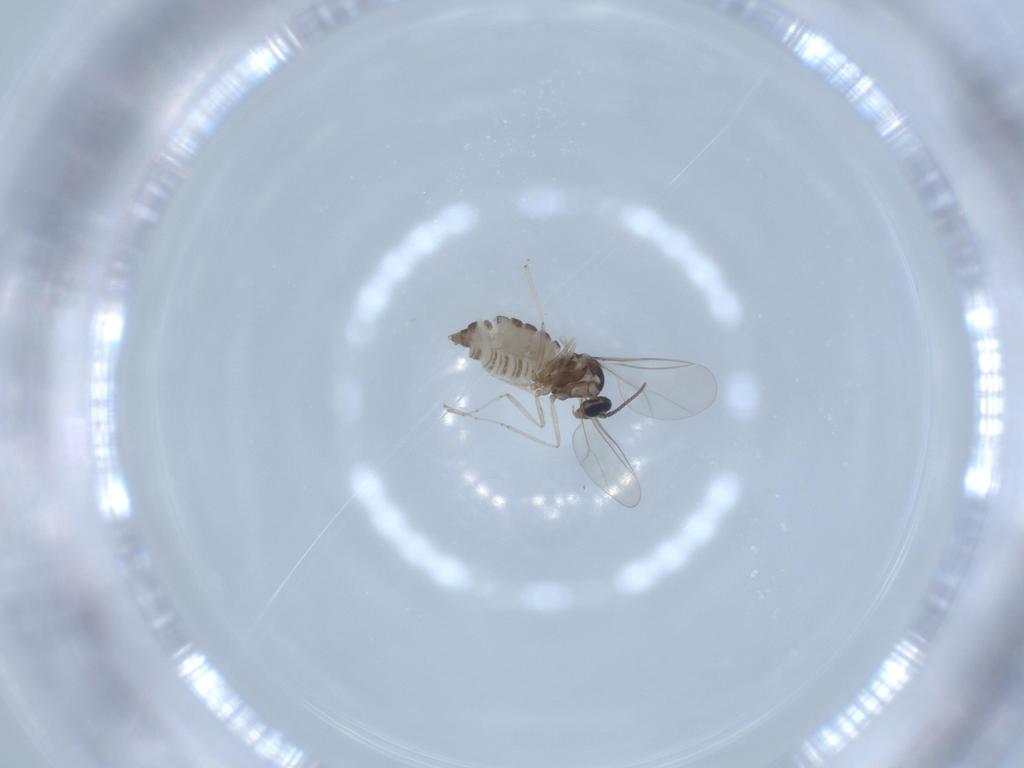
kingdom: Animalia
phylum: Arthropoda
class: Insecta
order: Diptera
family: Cecidomyiidae
